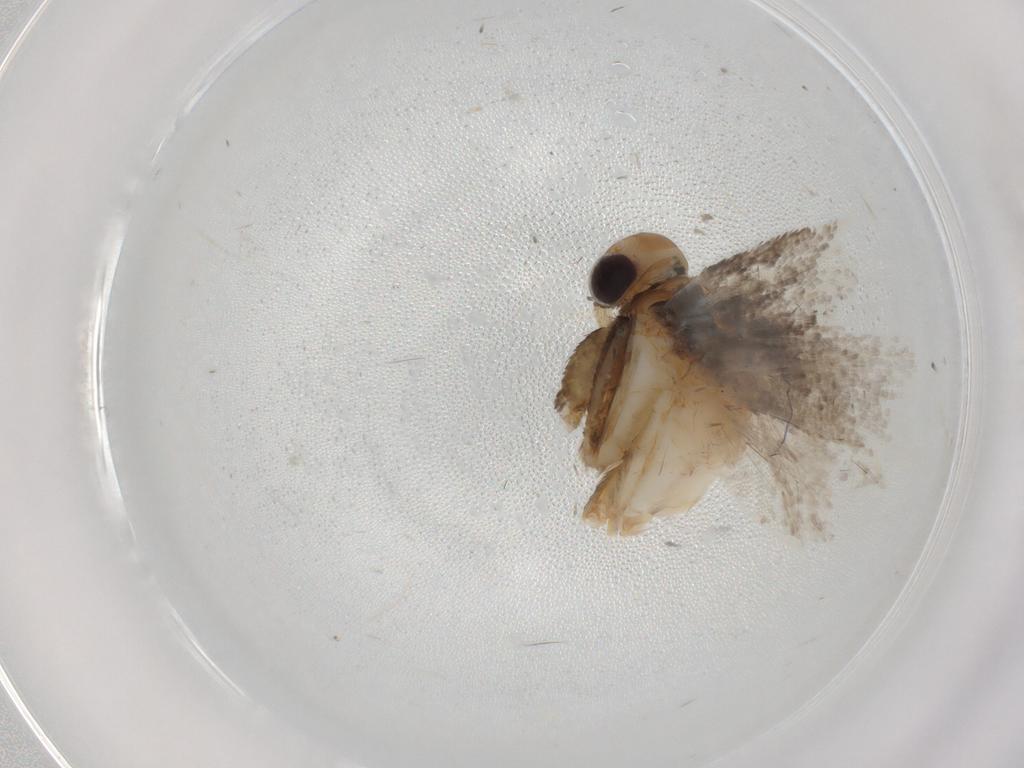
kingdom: Animalia
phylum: Arthropoda
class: Insecta
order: Lepidoptera
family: Oecophoridae
